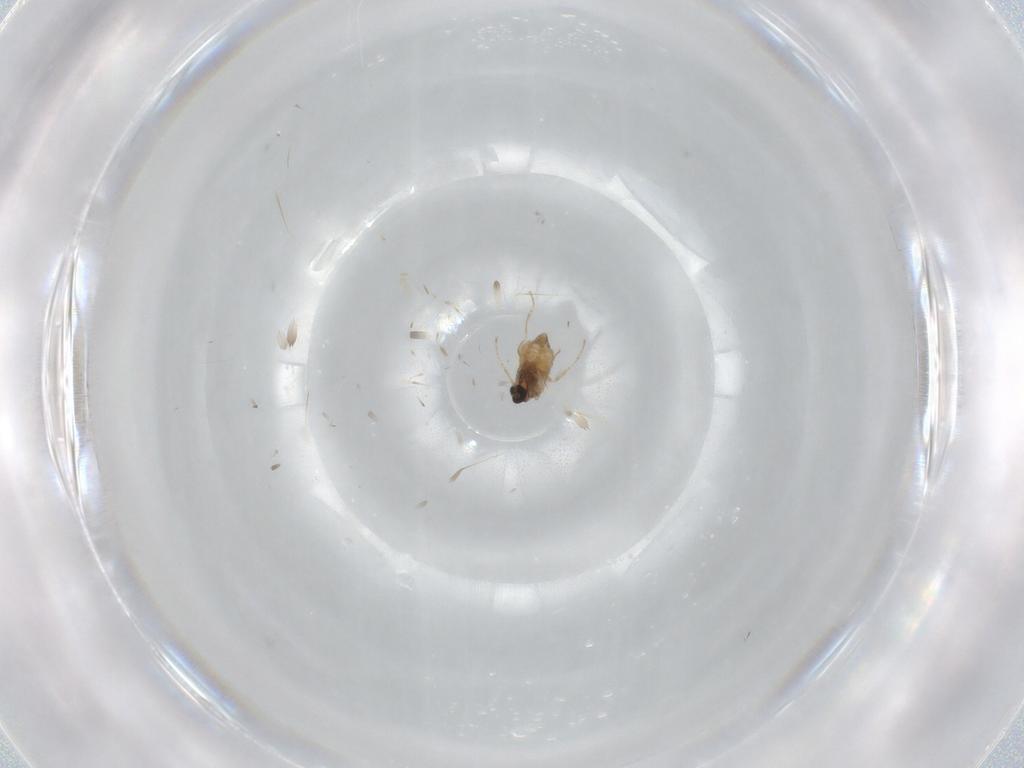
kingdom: Animalia
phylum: Arthropoda
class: Insecta
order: Diptera
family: Cecidomyiidae
